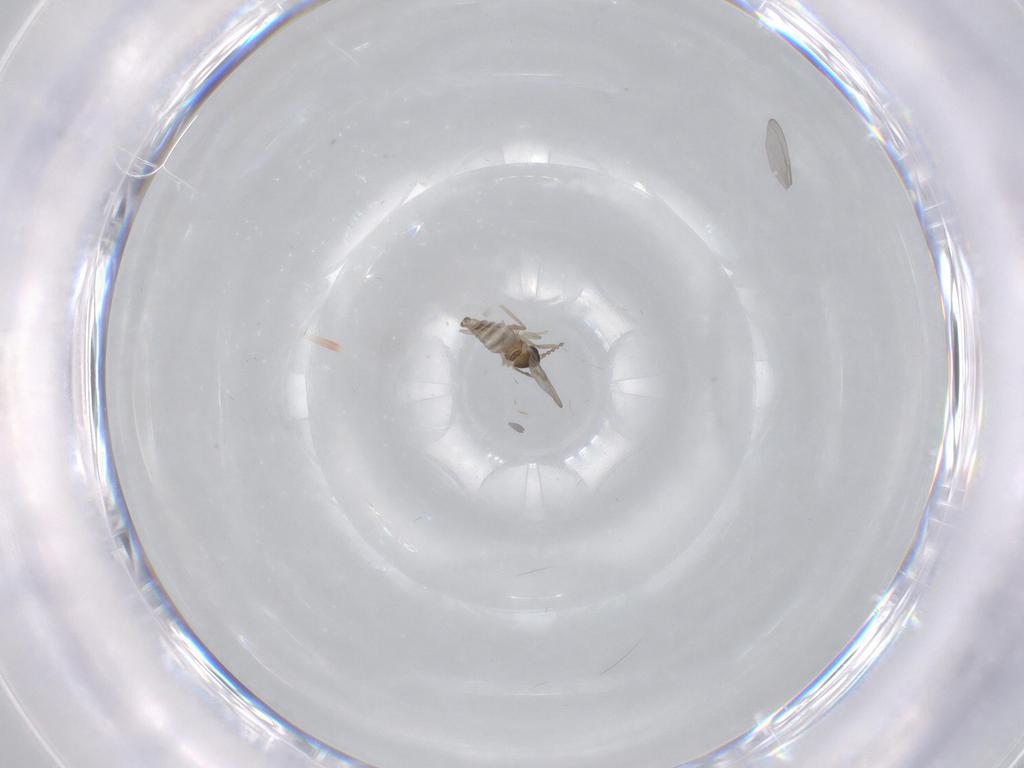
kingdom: Animalia
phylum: Arthropoda
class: Insecta
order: Diptera
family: Cecidomyiidae
